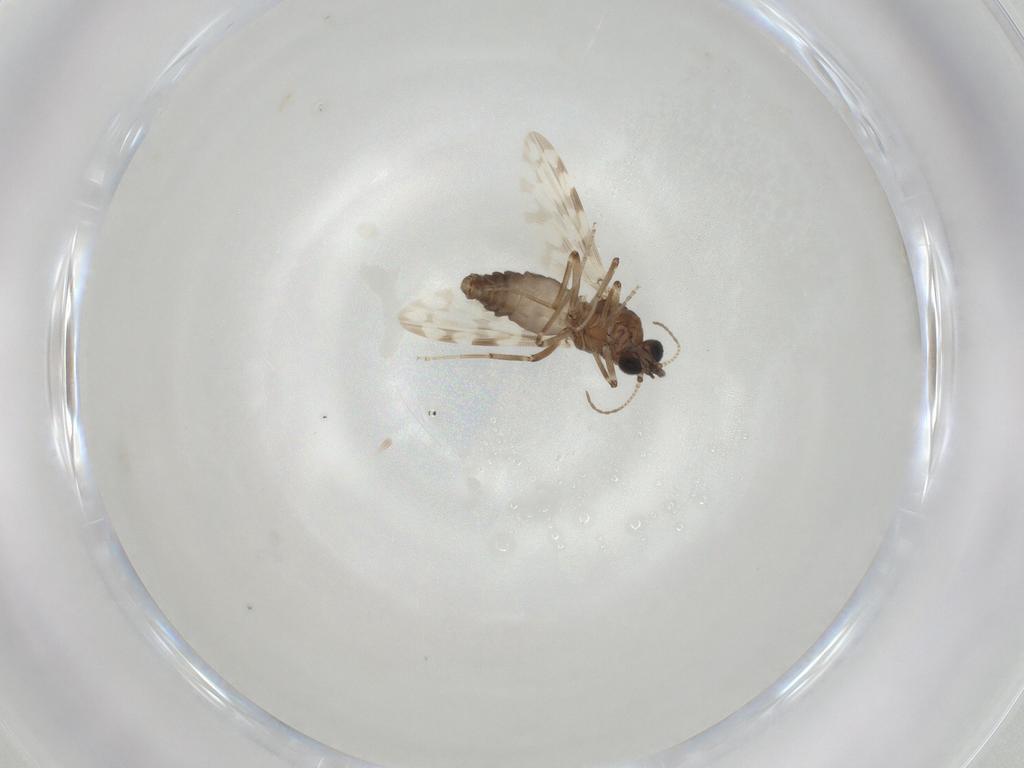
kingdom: Animalia
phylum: Arthropoda
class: Insecta
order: Diptera
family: Ceratopogonidae
